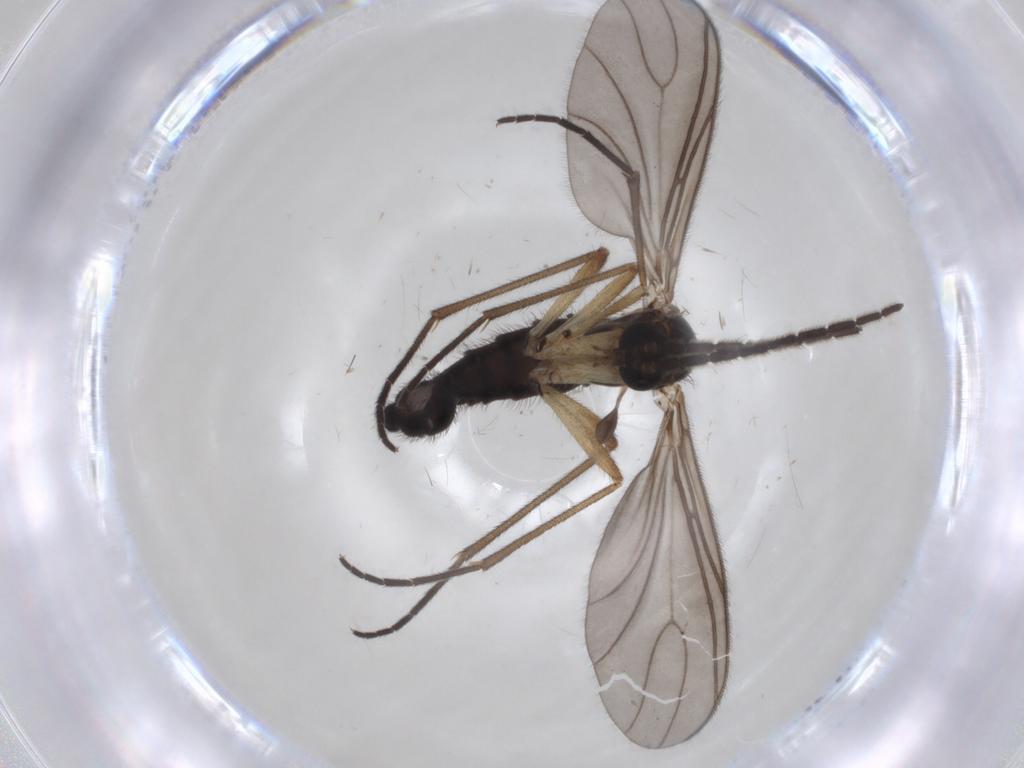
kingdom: Animalia
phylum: Arthropoda
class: Insecta
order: Diptera
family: Sciaridae
